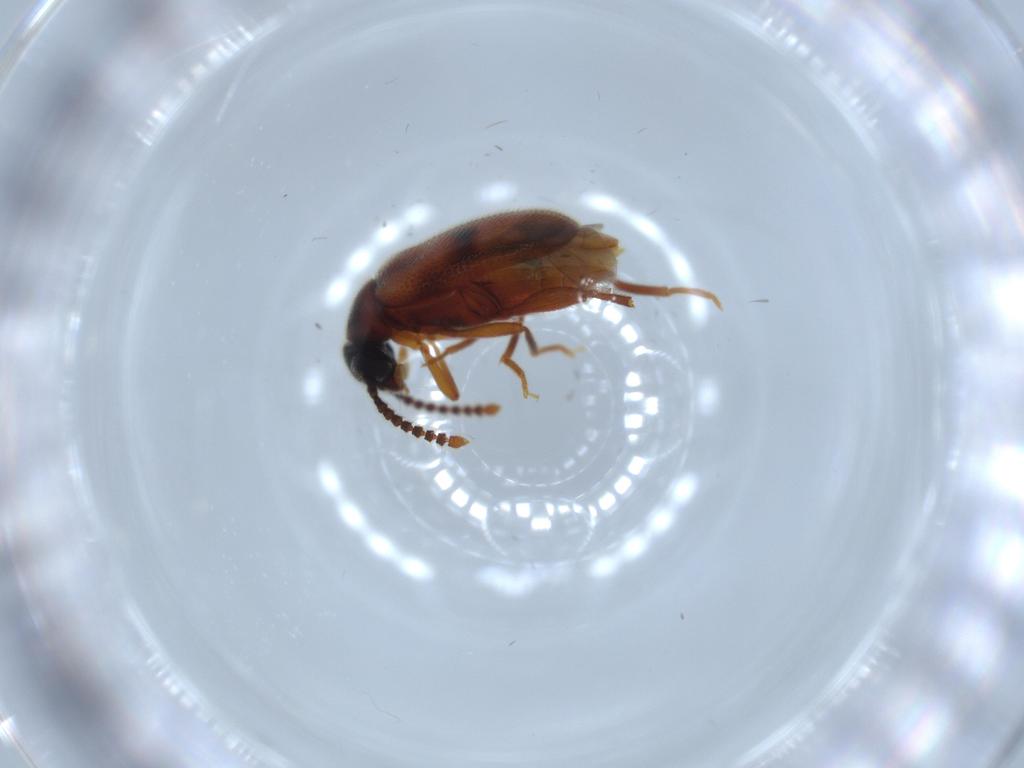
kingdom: Animalia
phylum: Arthropoda
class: Insecta
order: Coleoptera
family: Aderidae
